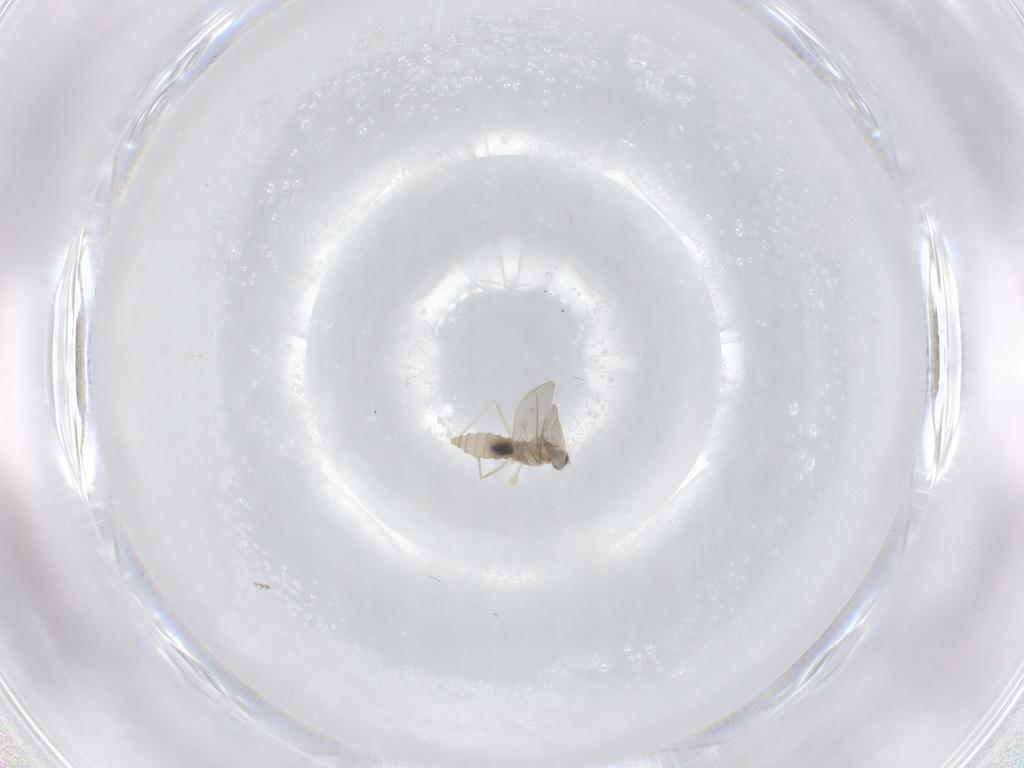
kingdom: Animalia
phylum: Arthropoda
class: Insecta
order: Diptera
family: Cecidomyiidae
